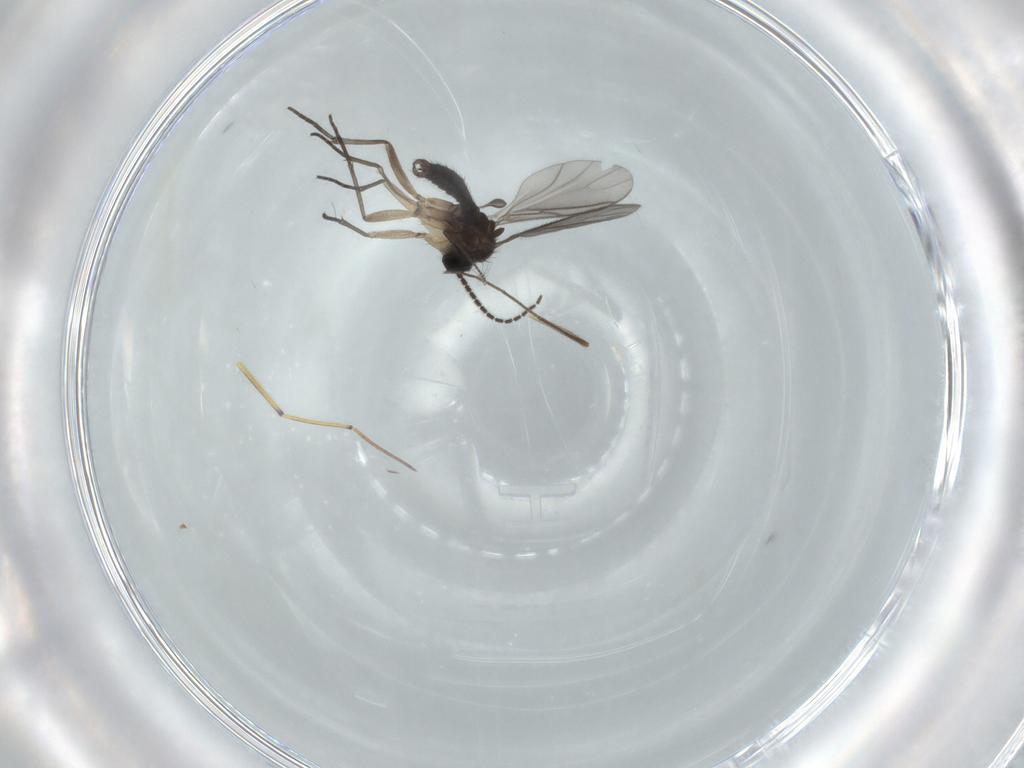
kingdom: Animalia
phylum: Arthropoda
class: Insecta
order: Diptera
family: Sciaridae
